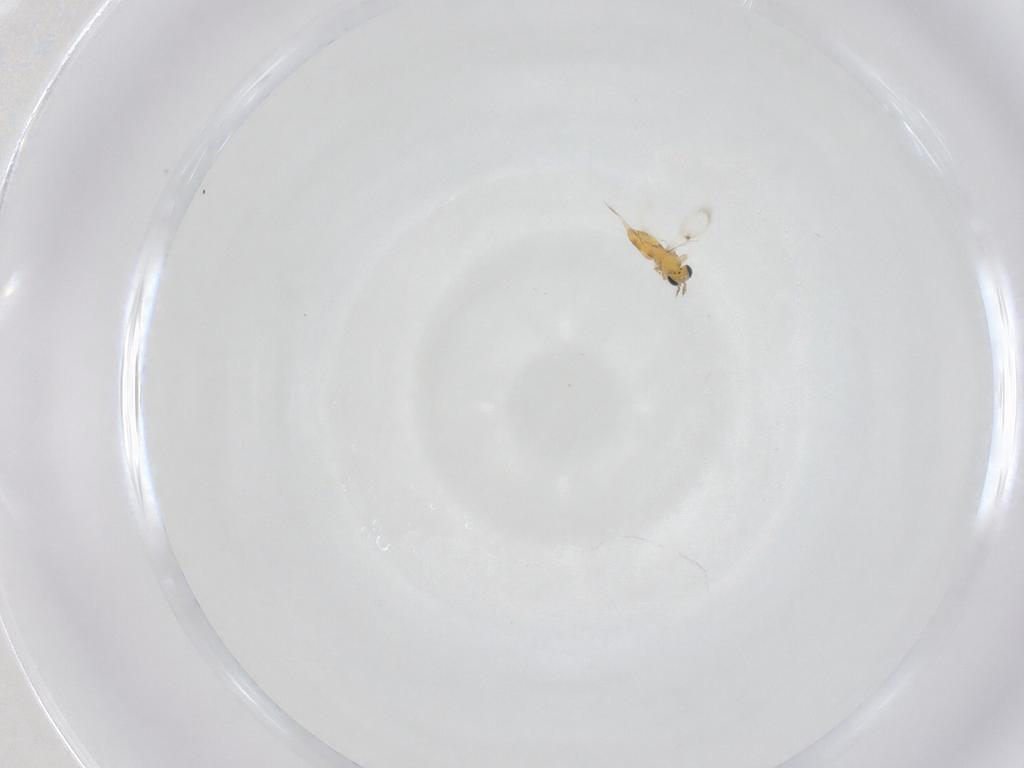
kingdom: Animalia
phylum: Arthropoda
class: Insecta
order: Hymenoptera
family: Trichogrammatidae
